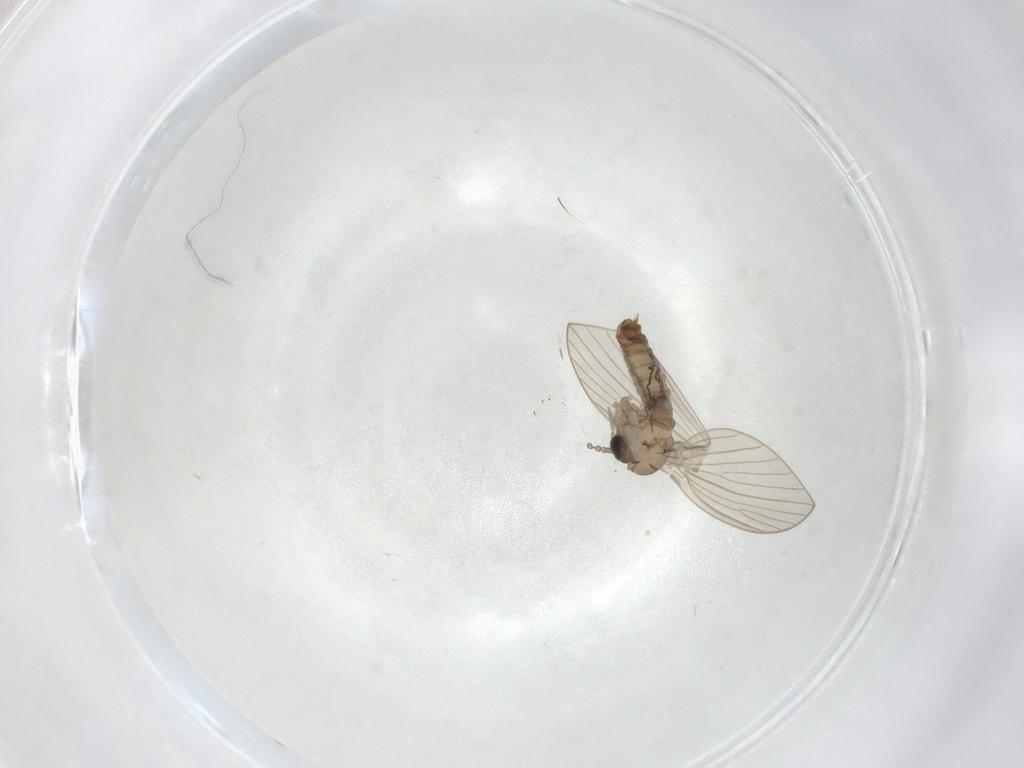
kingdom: Animalia
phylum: Arthropoda
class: Insecta
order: Diptera
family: Psychodidae
